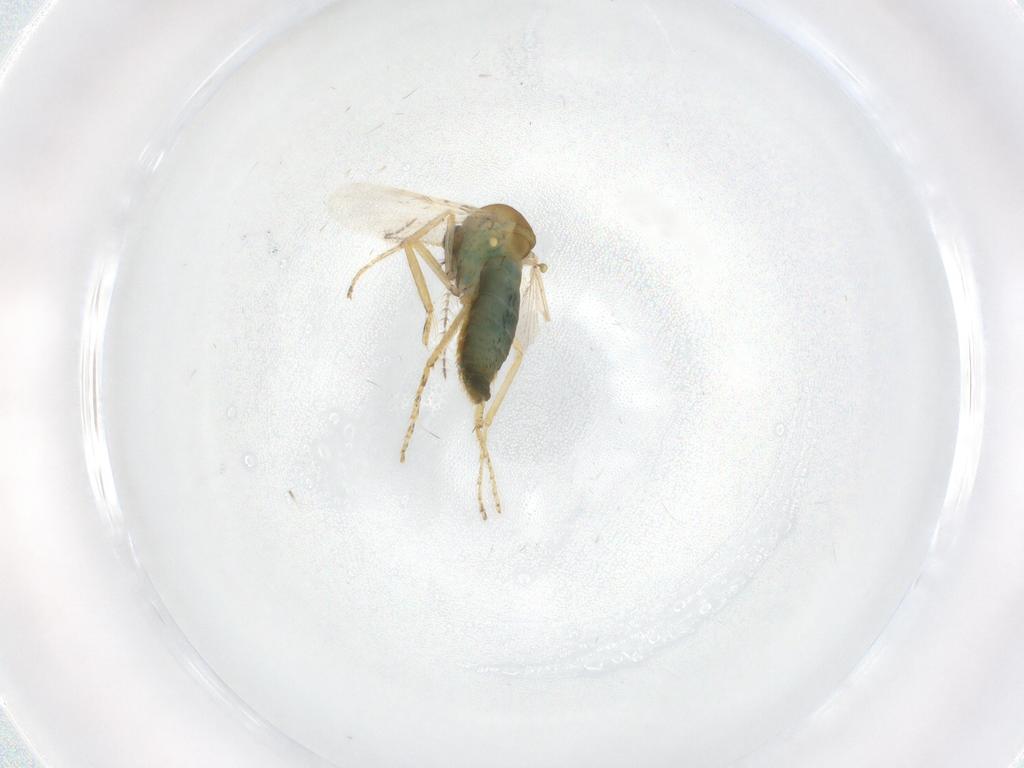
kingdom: Animalia
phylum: Arthropoda
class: Insecta
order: Diptera
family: Ceratopogonidae
